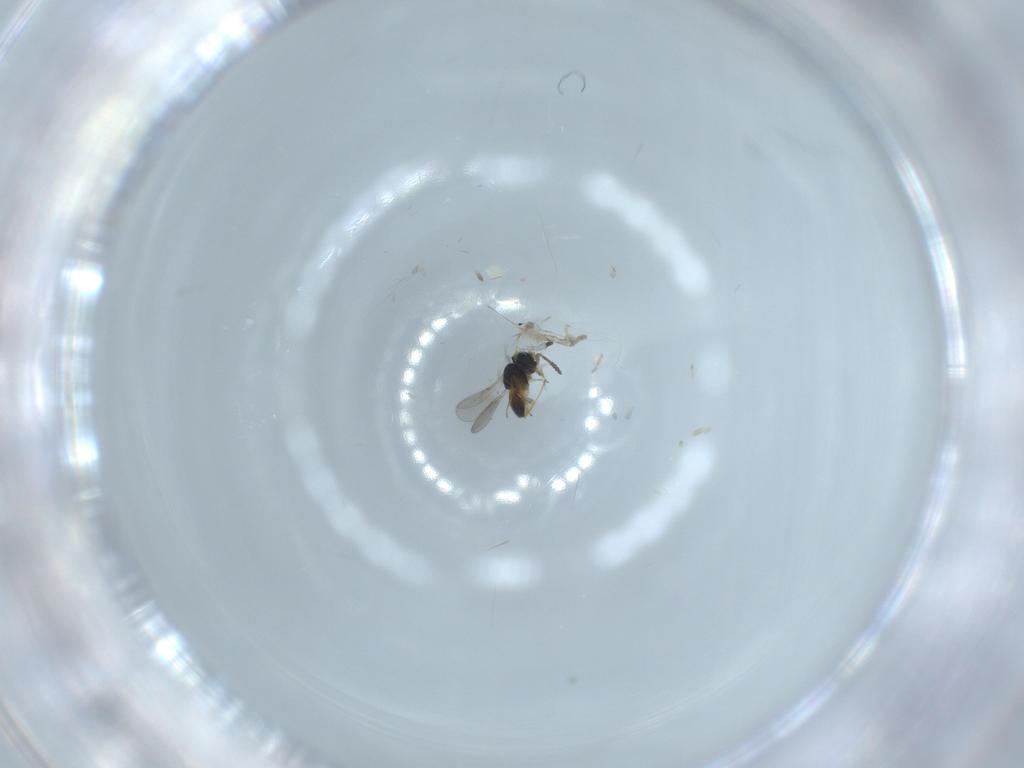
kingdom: Animalia
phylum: Arthropoda
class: Insecta
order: Hymenoptera
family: Scelionidae
